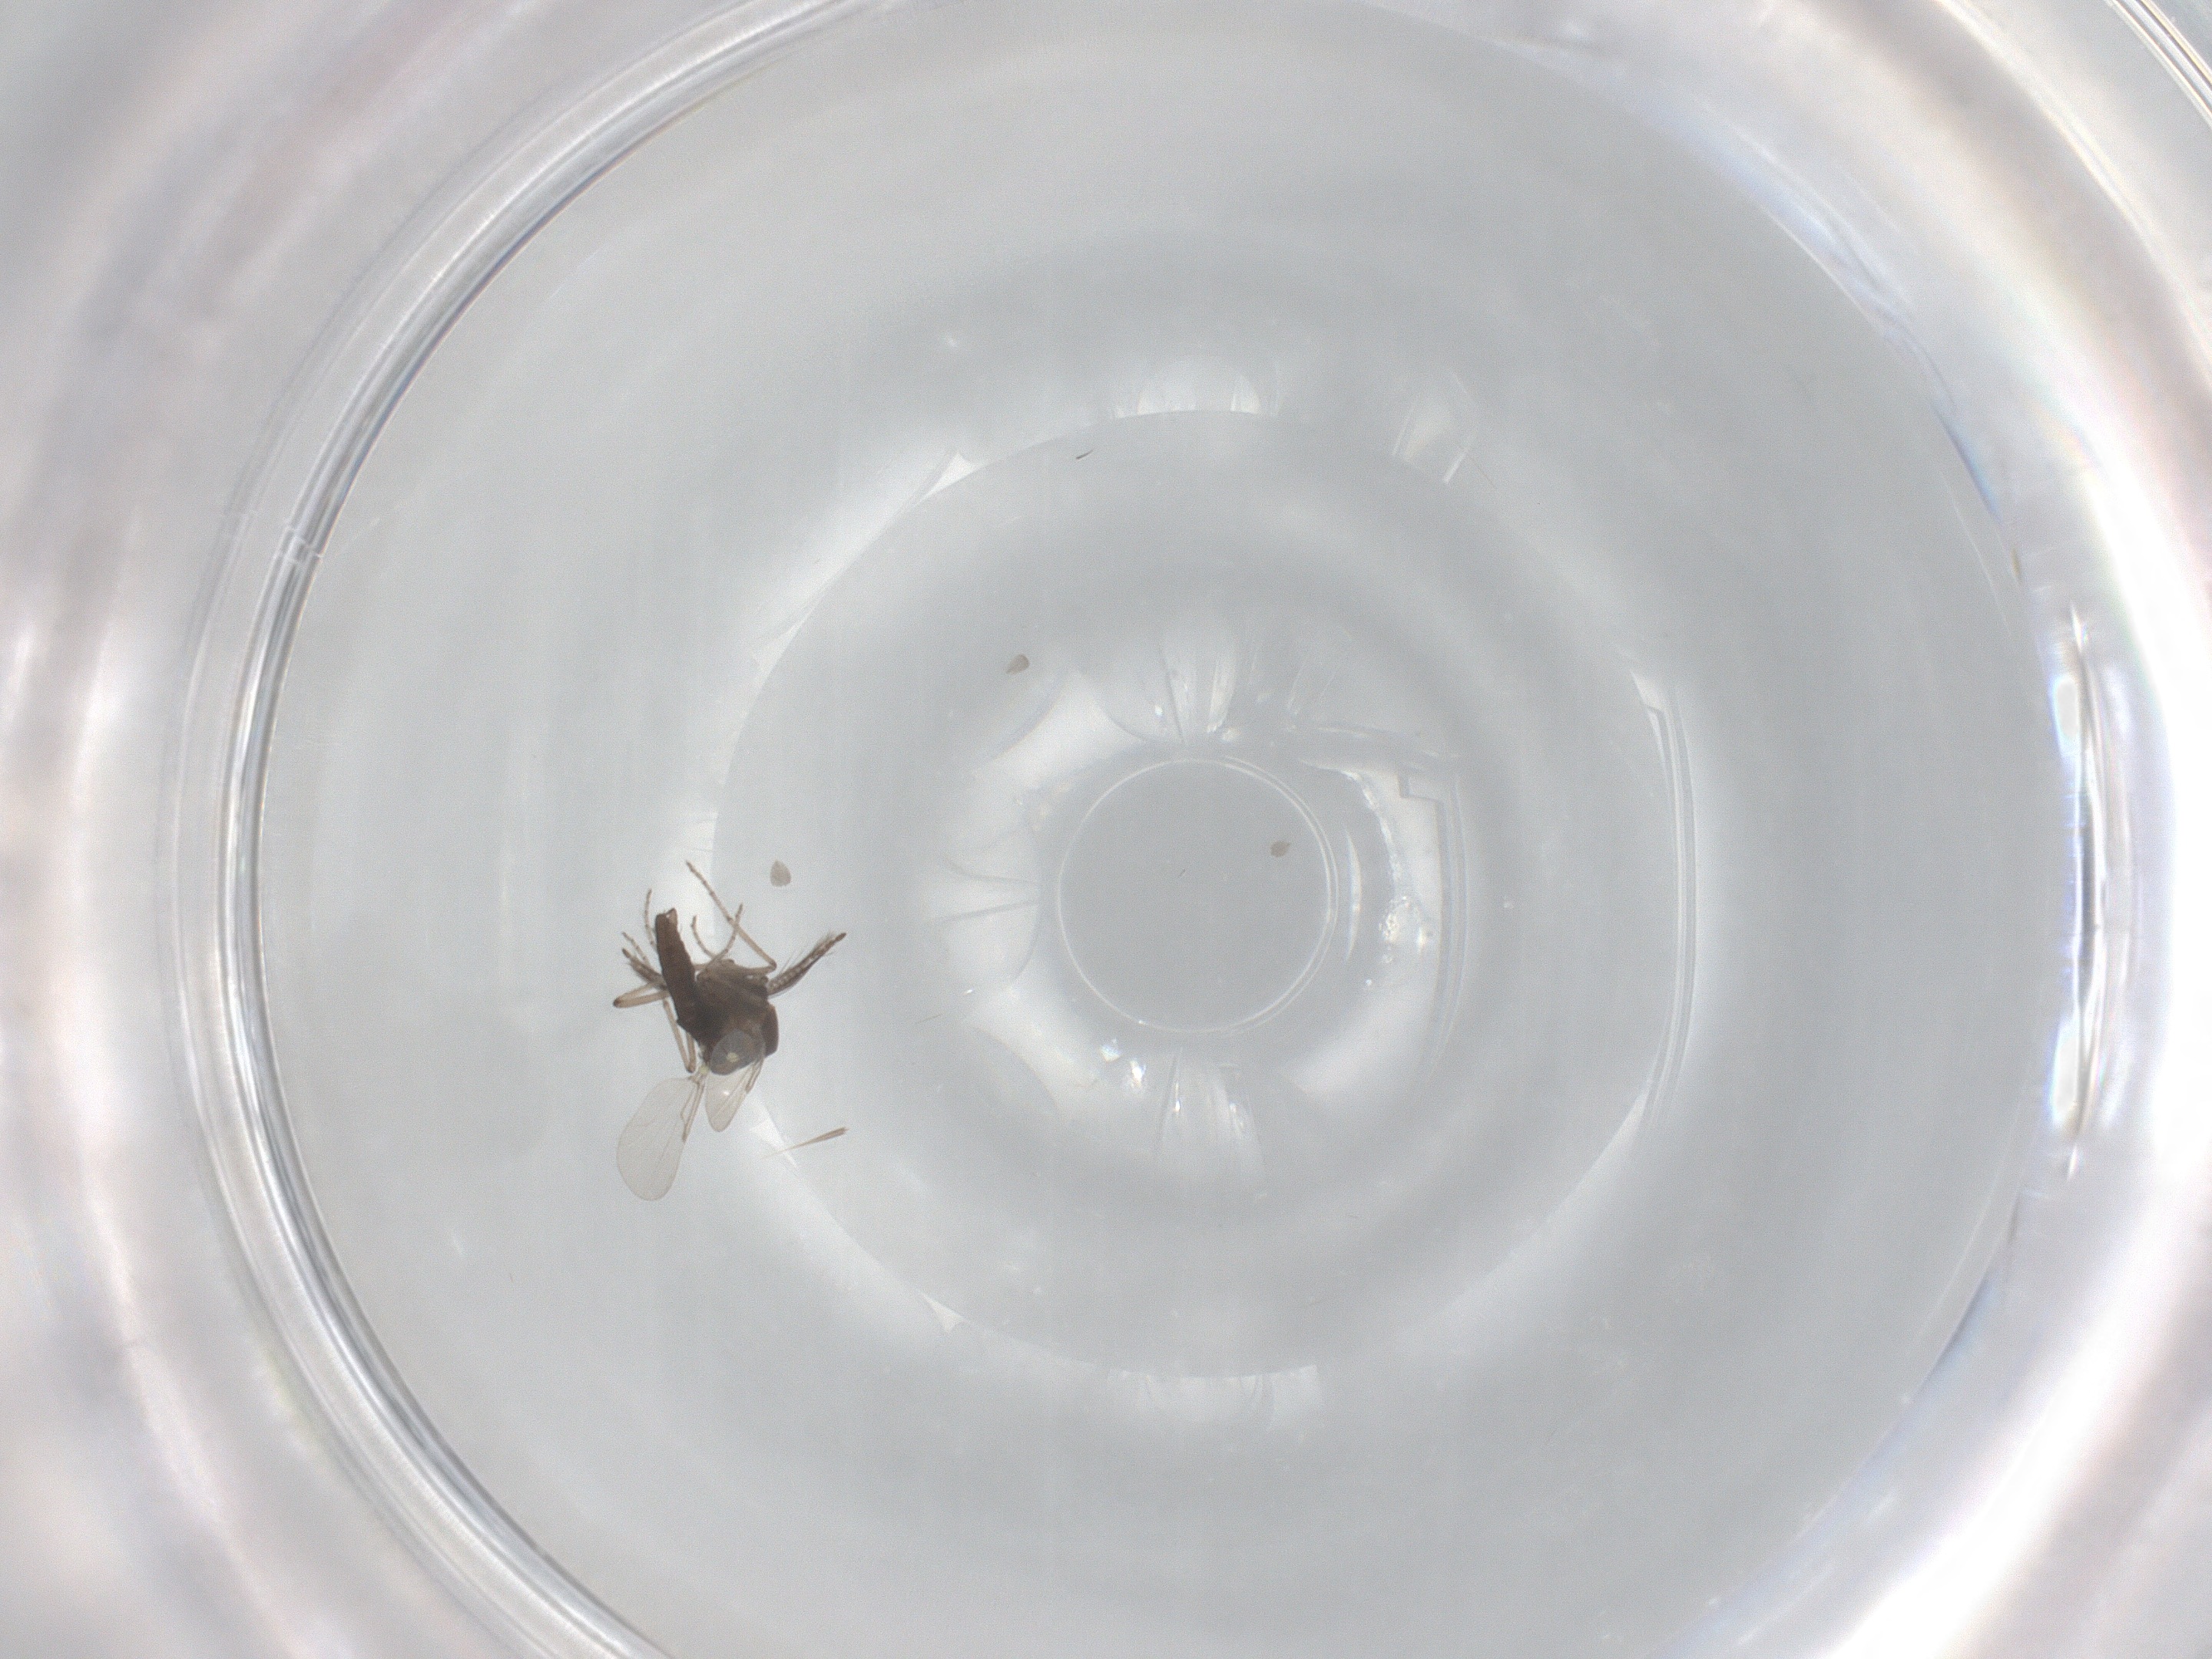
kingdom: Animalia
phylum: Arthropoda
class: Insecta
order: Diptera
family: Ceratopogonidae
